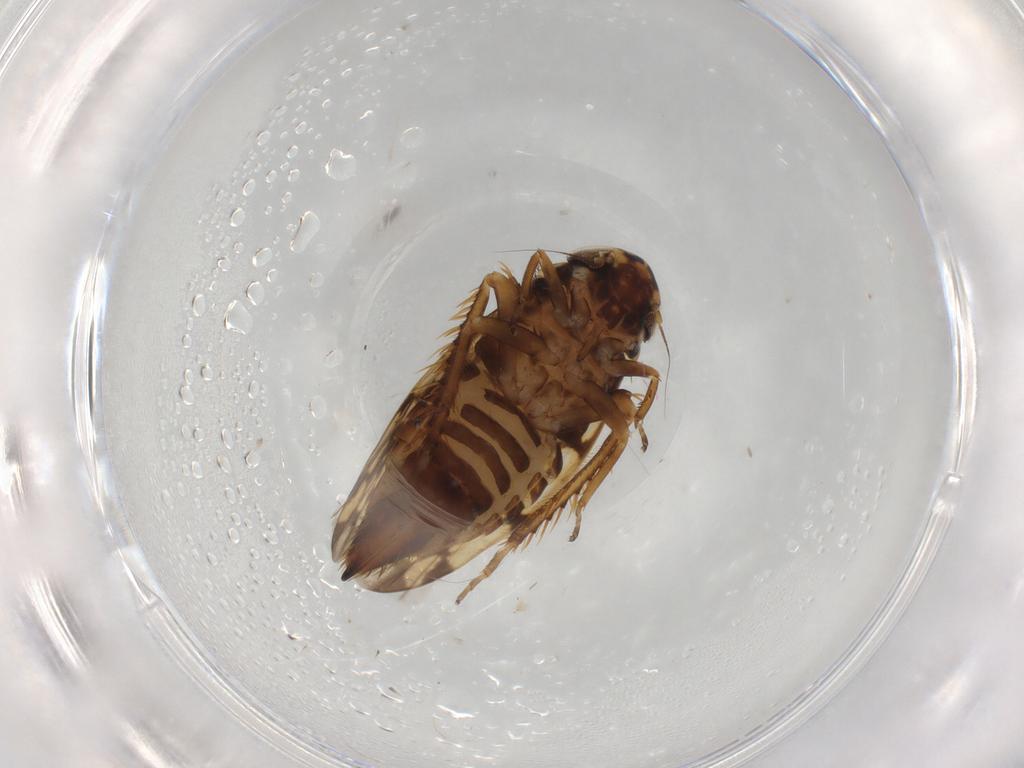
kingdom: Animalia
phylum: Arthropoda
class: Insecta
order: Hemiptera
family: Cicadellidae
